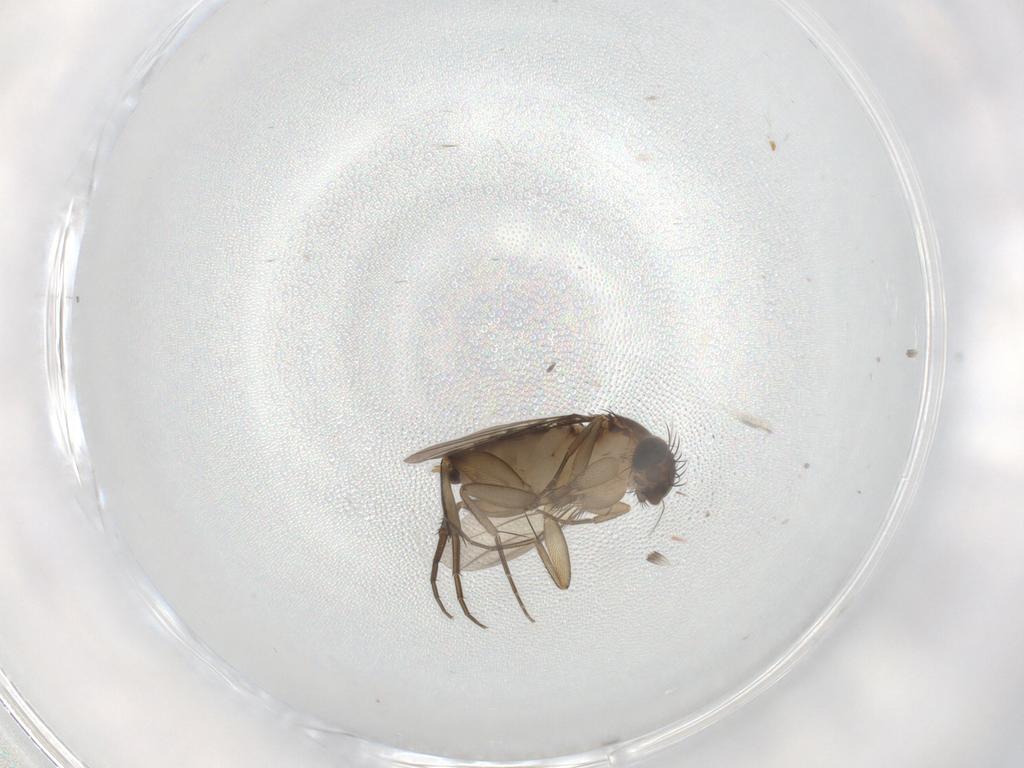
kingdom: Animalia
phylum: Arthropoda
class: Insecta
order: Diptera
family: Phoridae
